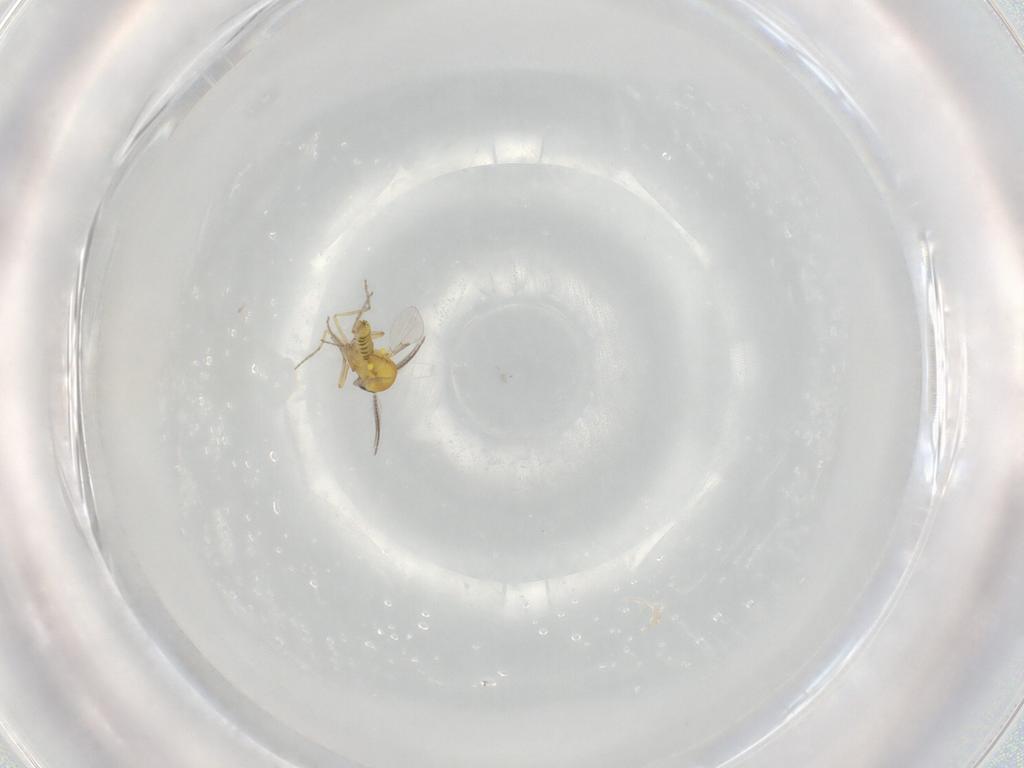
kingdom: Animalia
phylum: Arthropoda
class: Insecta
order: Diptera
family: Ceratopogonidae
